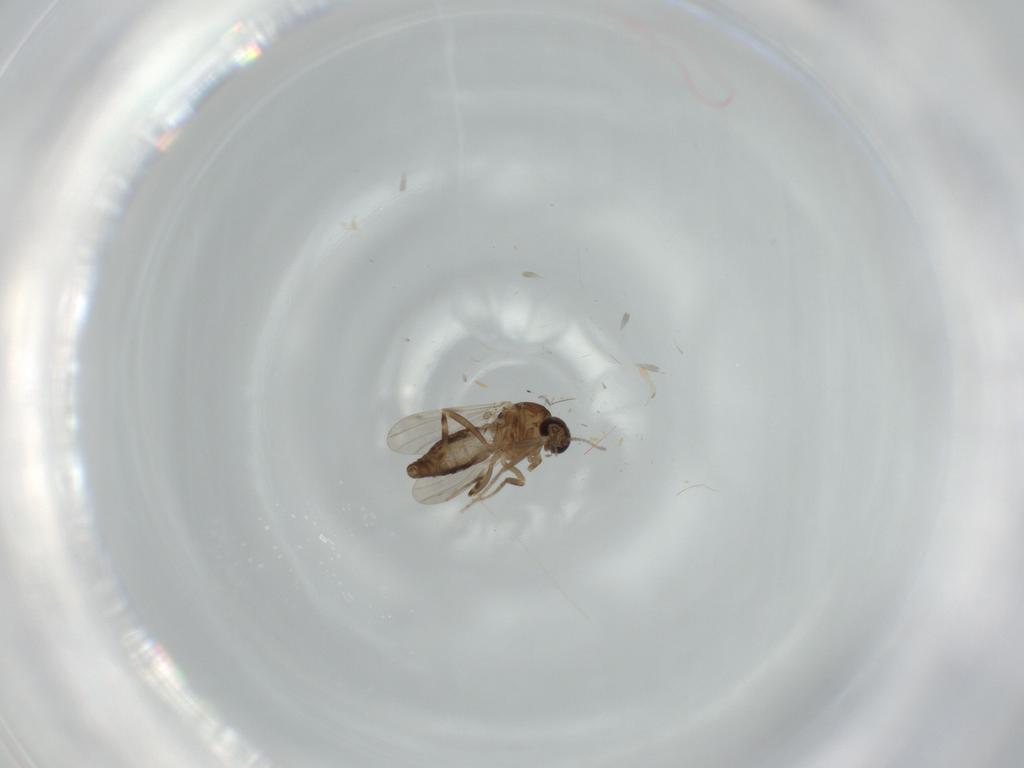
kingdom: Animalia
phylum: Arthropoda
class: Insecta
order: Diptera
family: Ceratopogonidae
